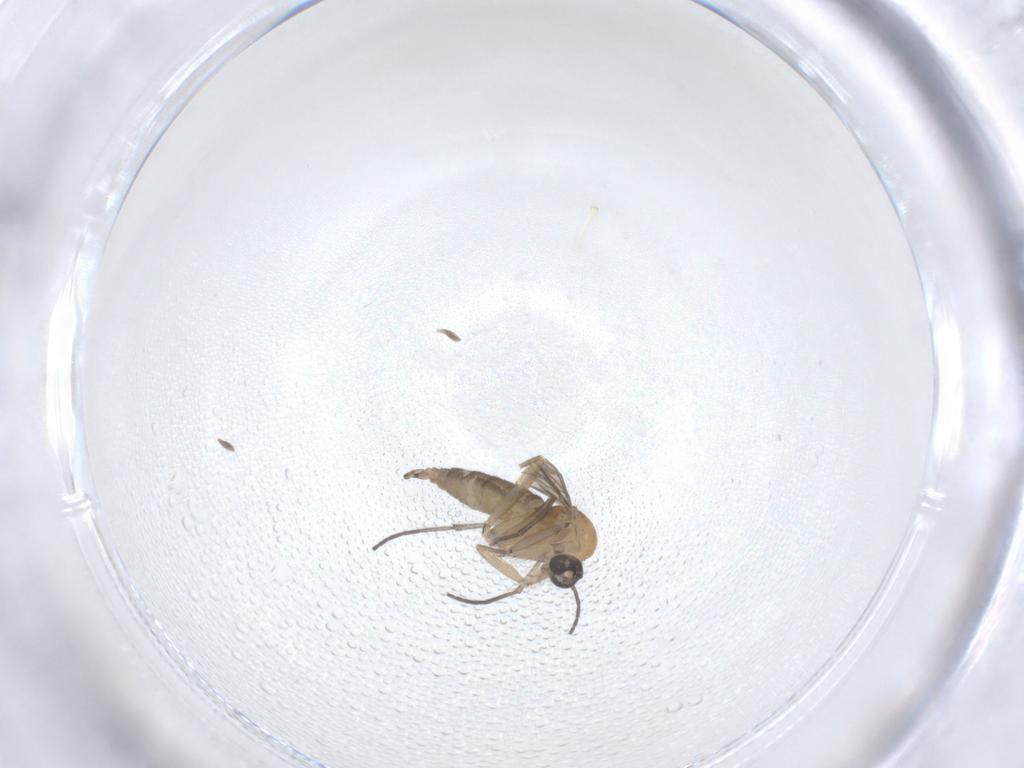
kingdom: Animalia
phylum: Arthropoda
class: Insecta
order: Diptera
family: Sciaridae
